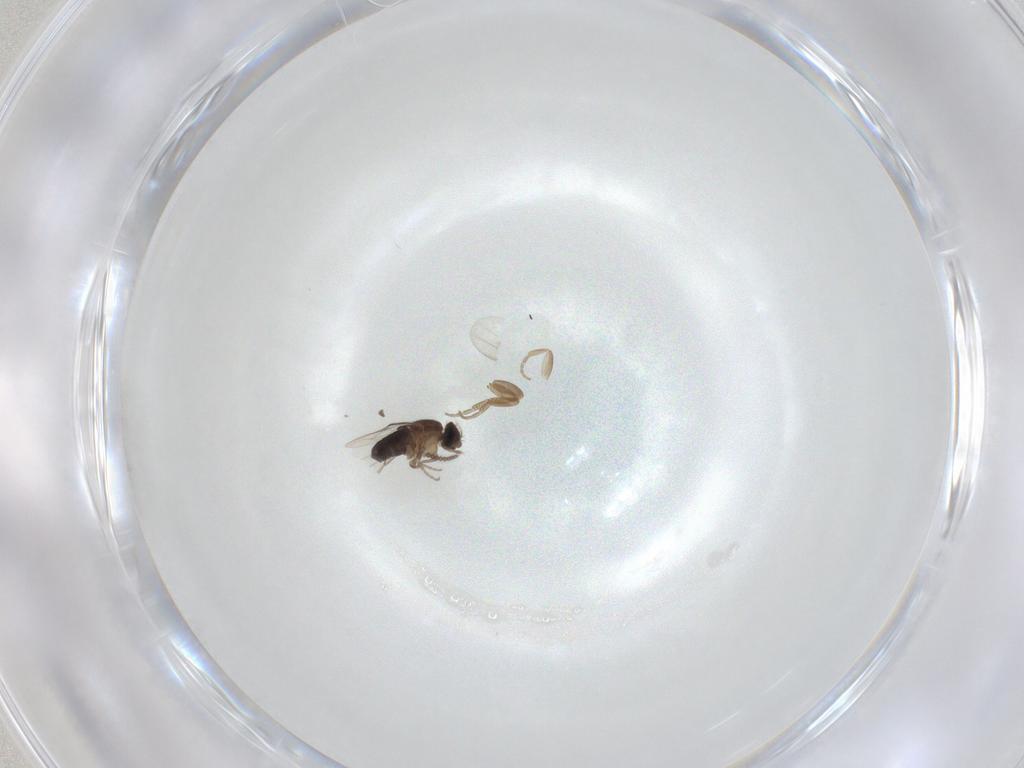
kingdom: Animalia
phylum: Arthropoda
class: Insecta
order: Diptera
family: Phoridae
